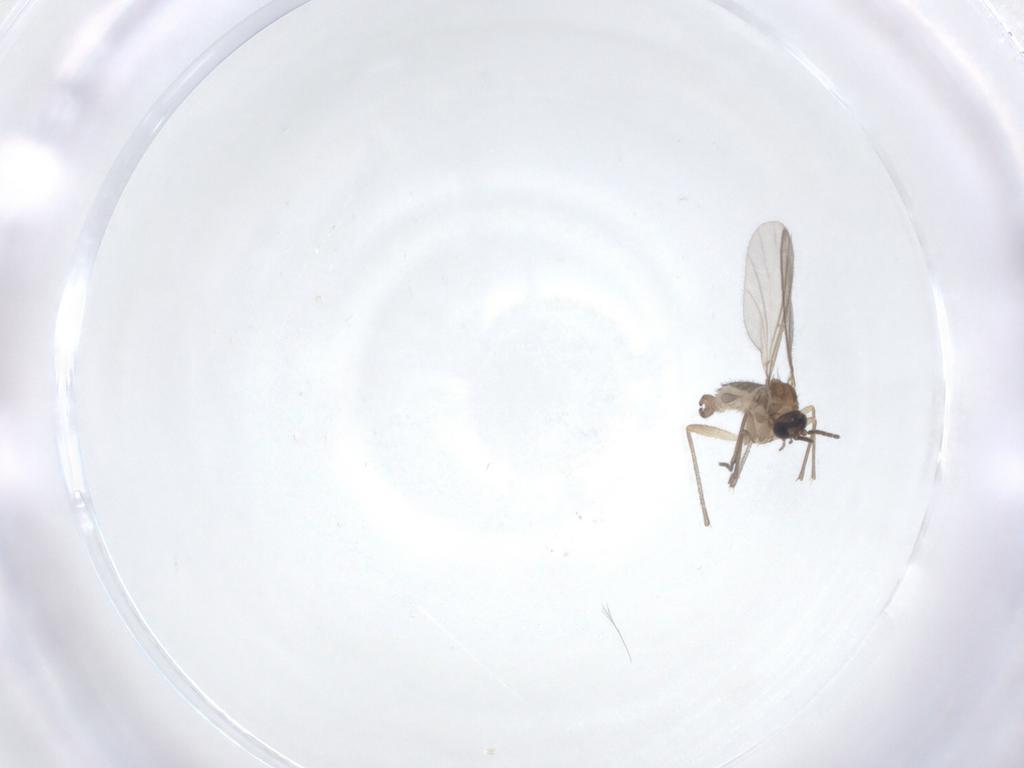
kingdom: Animalia
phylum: Arthropoda
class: Insecta
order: Diptera
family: Sciaridae
